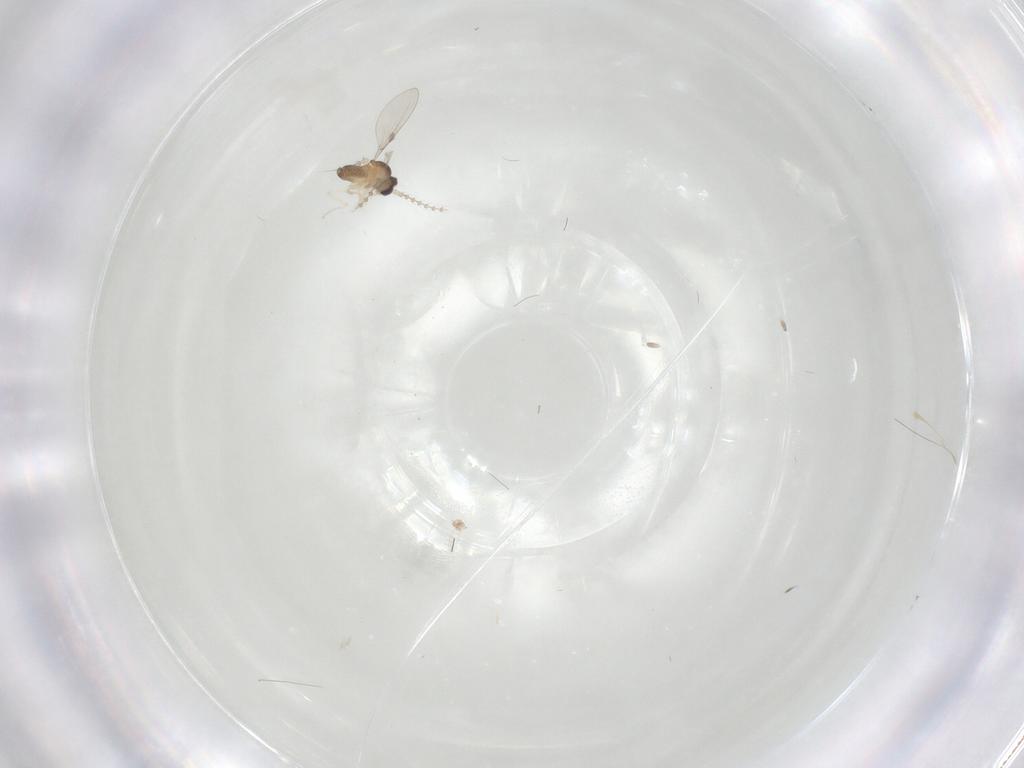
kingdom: Animalia
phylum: Arthropoda
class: Insecta
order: Diptera
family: Cecidomyiidae
